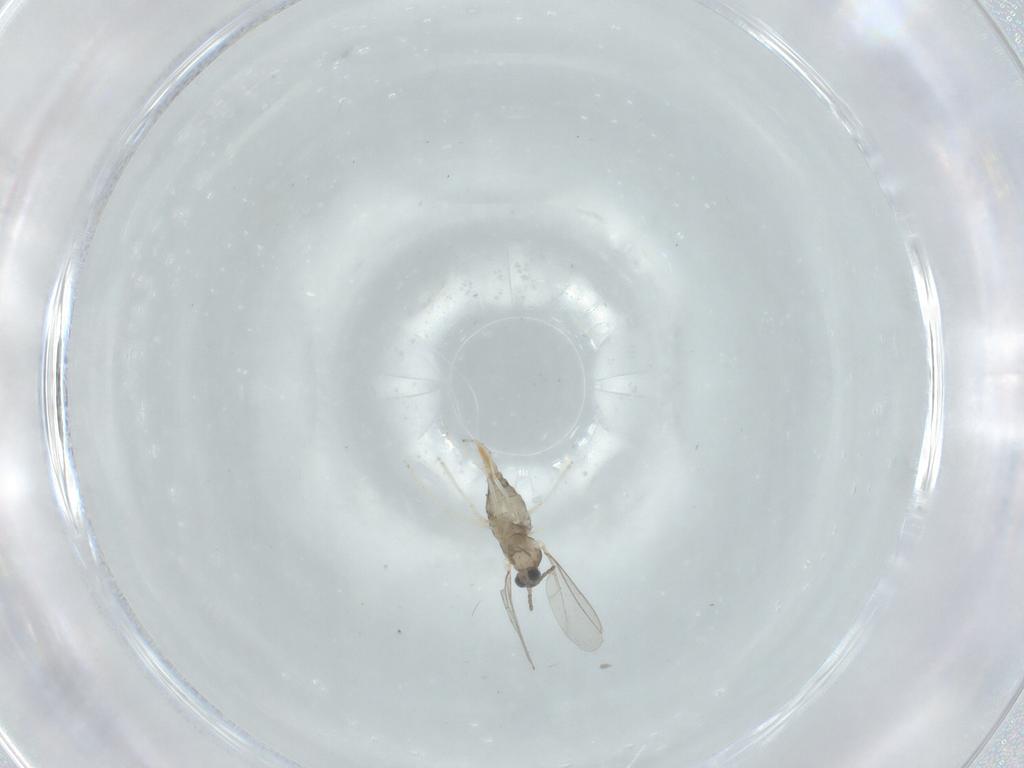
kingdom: Animalia
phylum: Arthropoda
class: Insecta
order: Diptera
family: Cecidomyiidae
